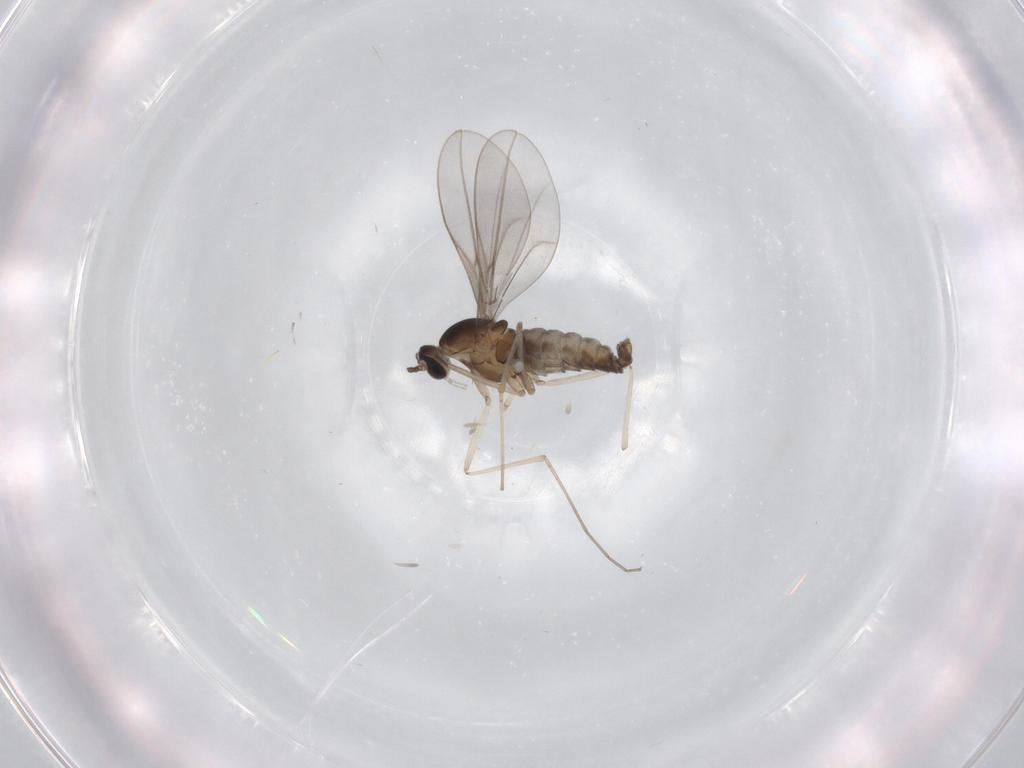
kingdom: Animalia
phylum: Arthropoda
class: Insecta
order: Diptera
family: Cecidomyiidae
